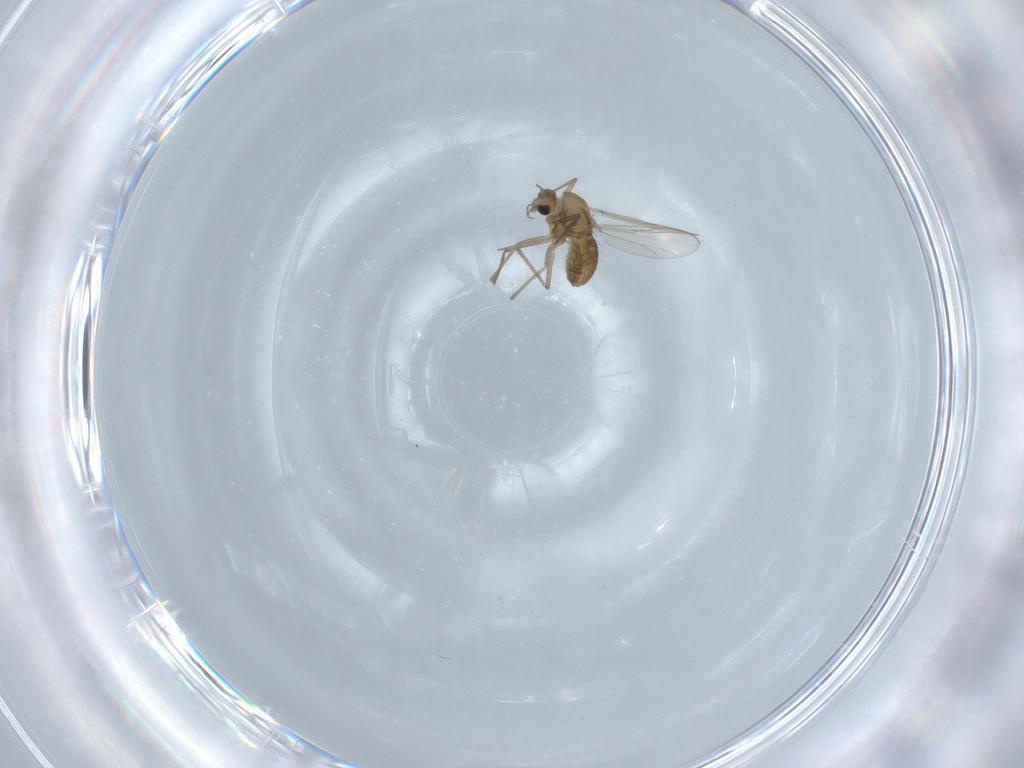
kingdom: Animalia
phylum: Arthropoda
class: Insecta
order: Diptera
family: Chironomidae
